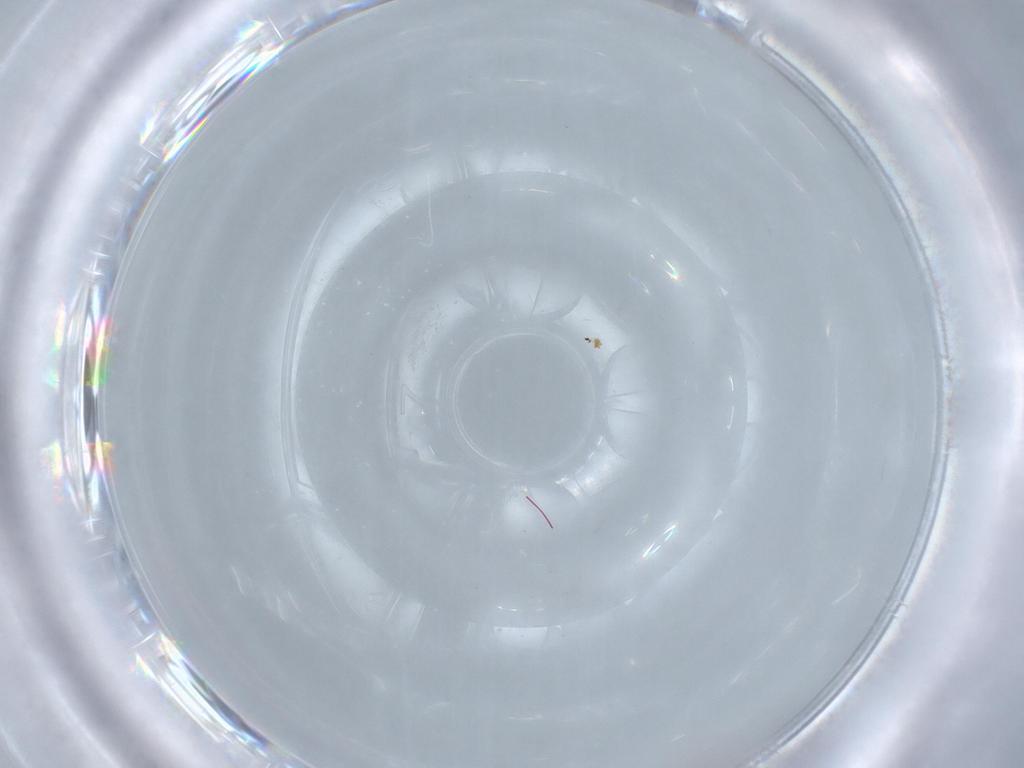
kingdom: Animalia
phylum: Arthropoda
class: Insecta
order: Hymenoptera
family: Mymaridae
